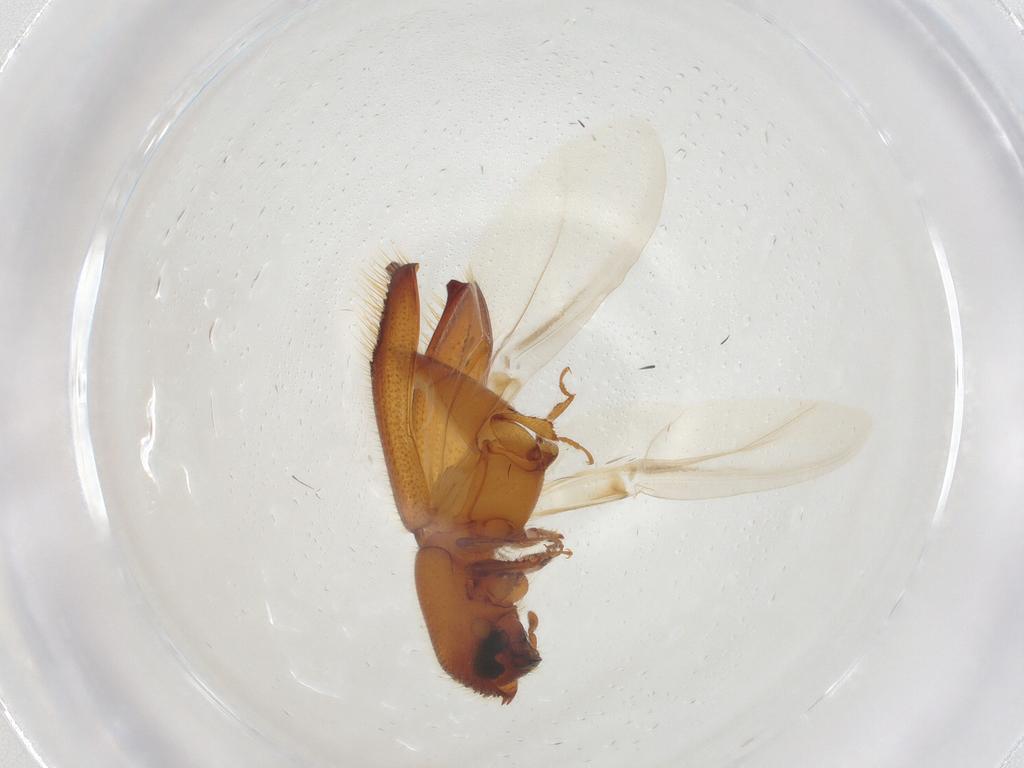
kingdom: Animalia
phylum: Arthropoda
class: Insecta
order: Coleoptera
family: Curculionidae
